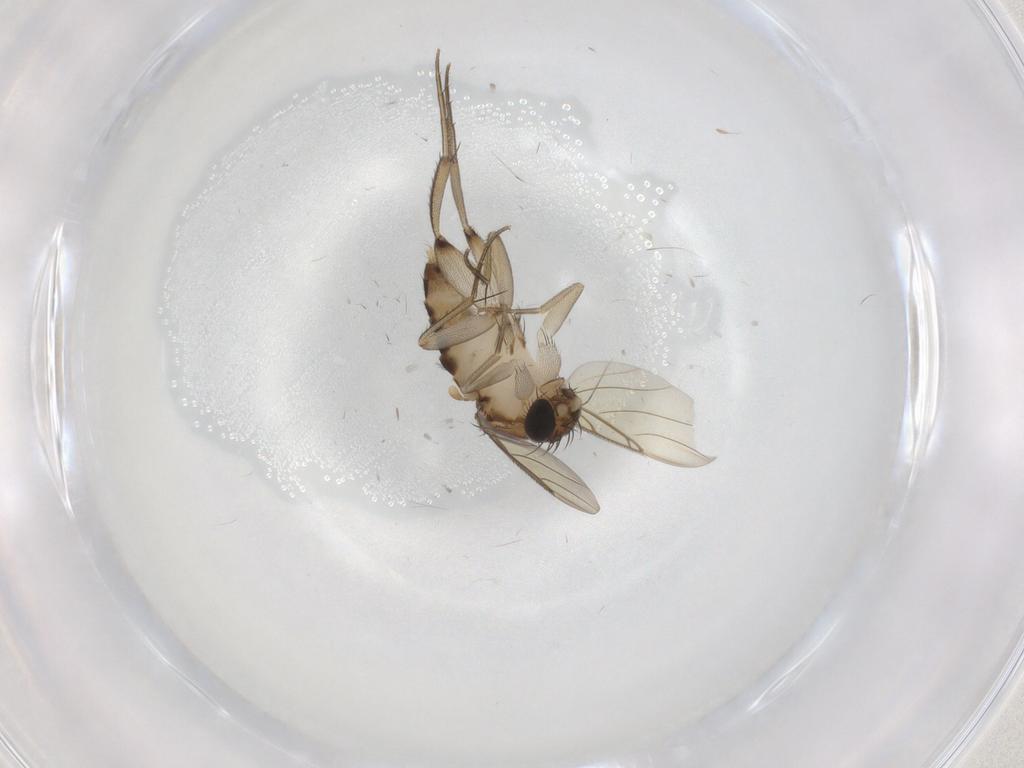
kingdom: Animalia
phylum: Arthropoda
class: Insecta
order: Diptera
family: Phoridae
